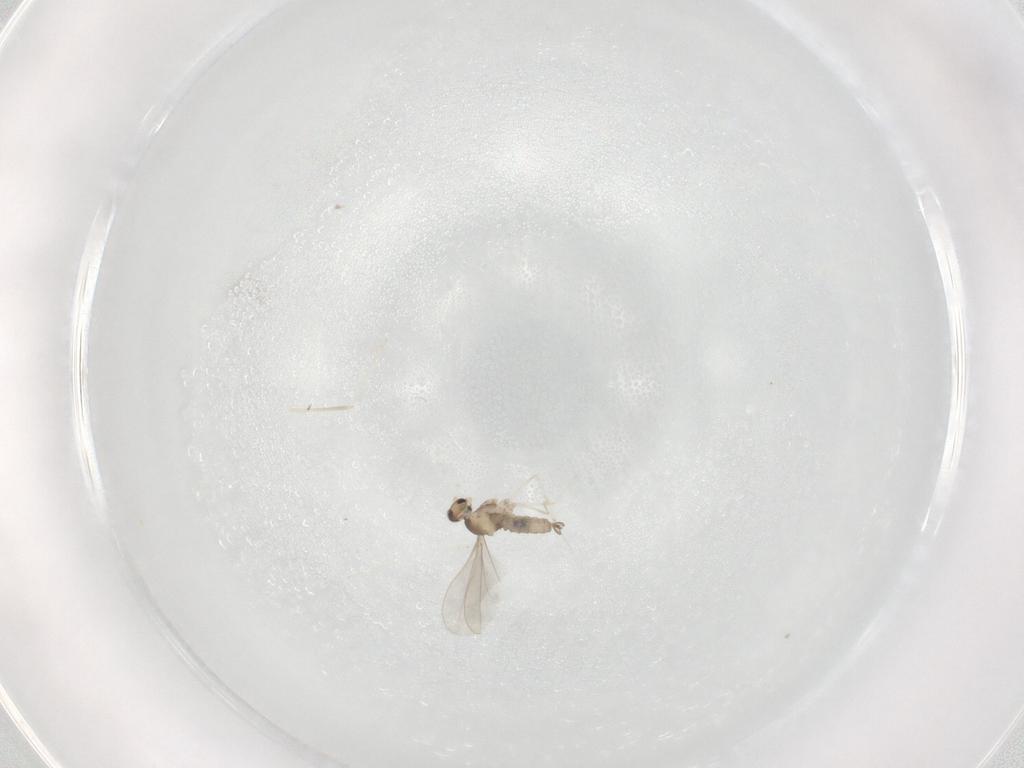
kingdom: Animalia
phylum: Arthropoda
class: Insecta
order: Diptera
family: Cecidomyiidae
